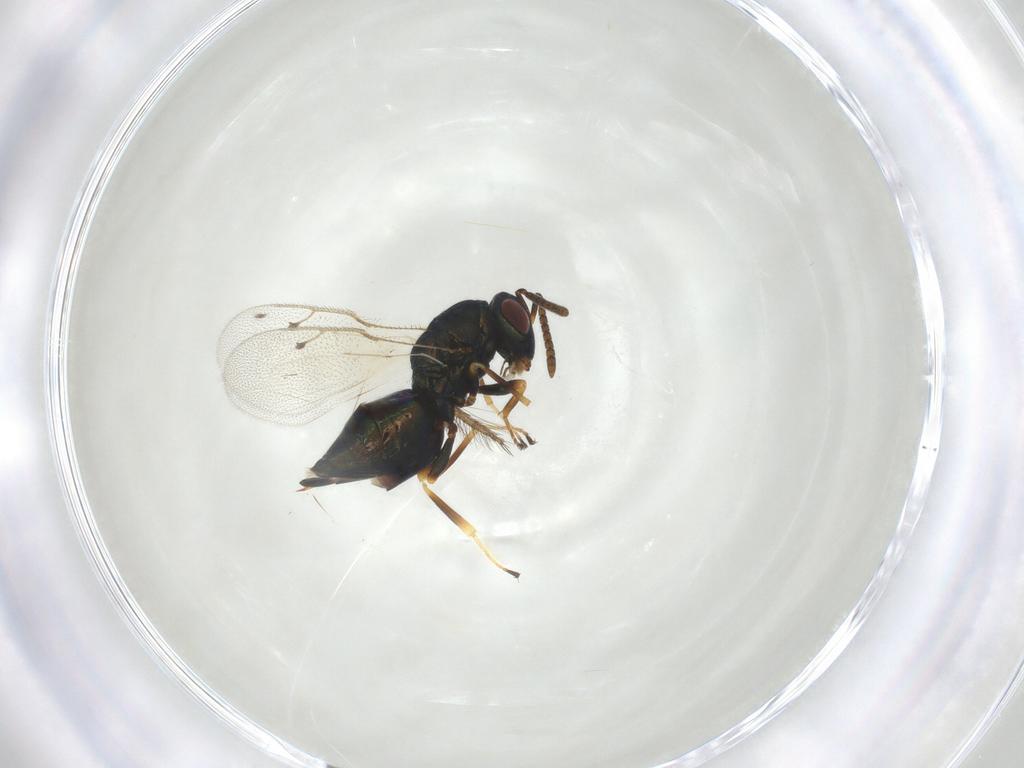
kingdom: Animalia
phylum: Arthropoda
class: Insecta
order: Hymenoptera
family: Pteromalidae
